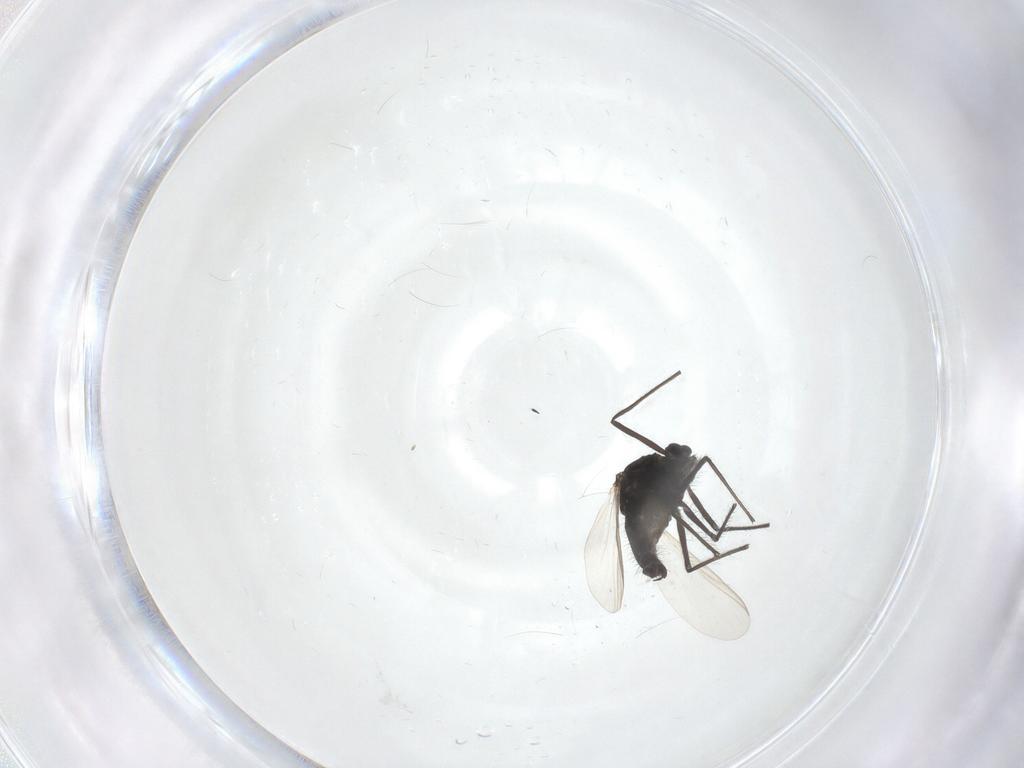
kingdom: Animalia
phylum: Arthropoda
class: Insecta
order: Diptera
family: Chironomidae
